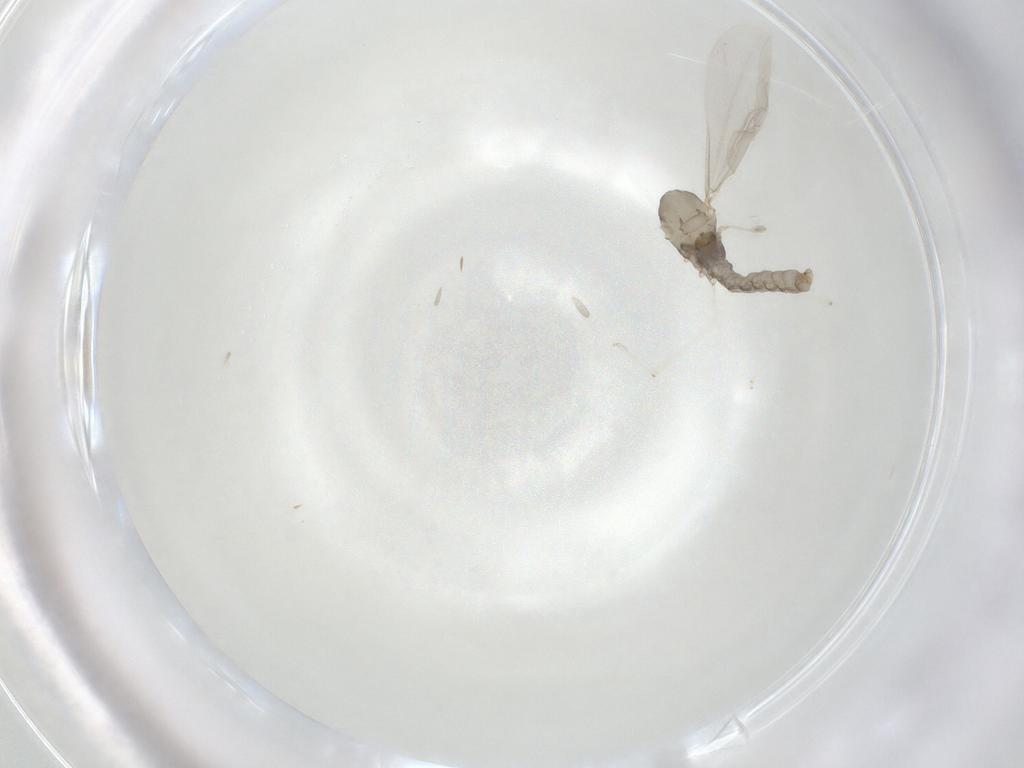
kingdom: Animalia
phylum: Arthropoda
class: Insecta
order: Diptera
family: Cecidomyiidae
